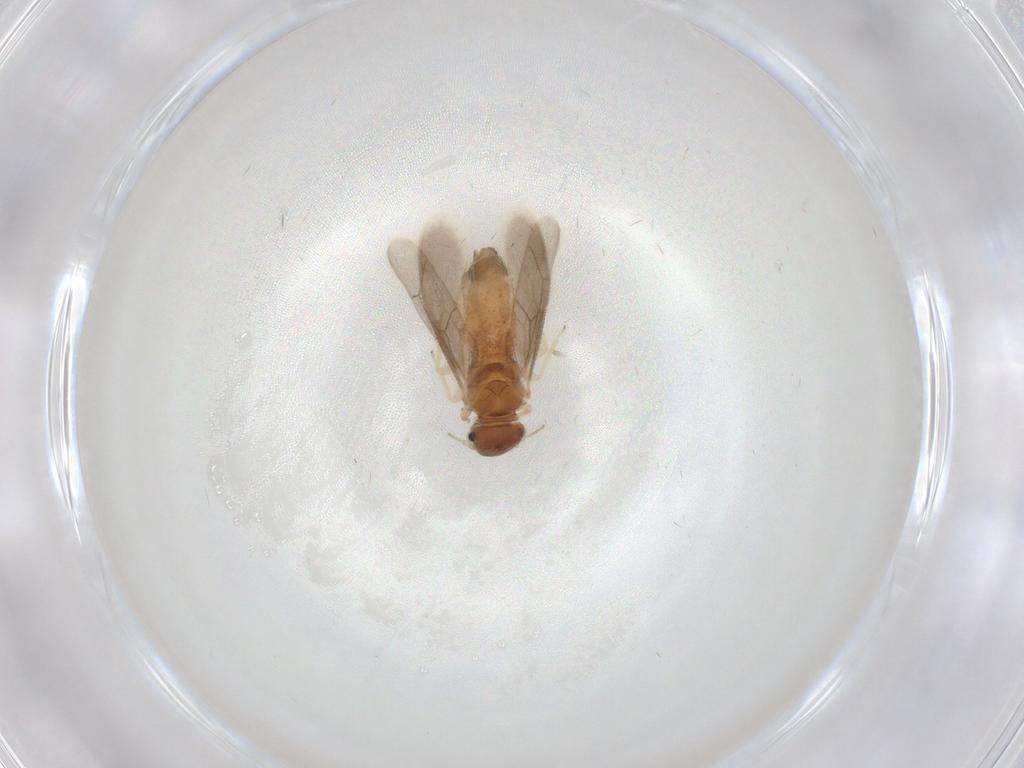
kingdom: Animalia
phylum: Arthropoda
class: Insecta
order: Psocodea
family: Archipsocidae
